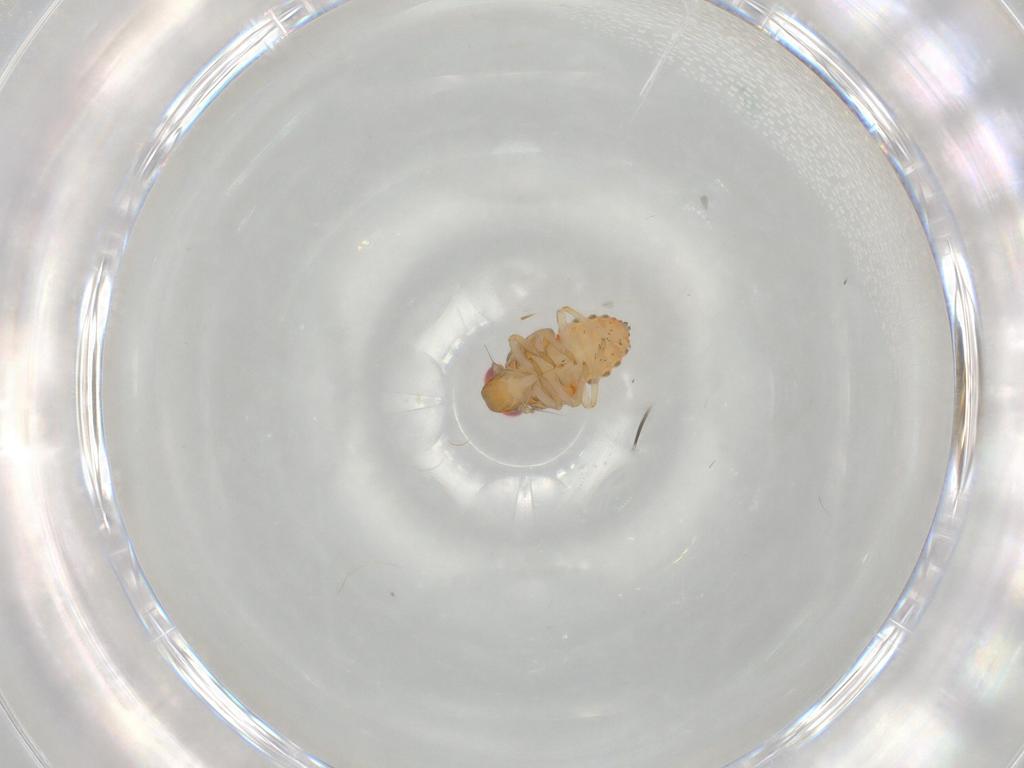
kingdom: Animalia
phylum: Arthropoda
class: Insecta
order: Hemiptera
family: Issidae
